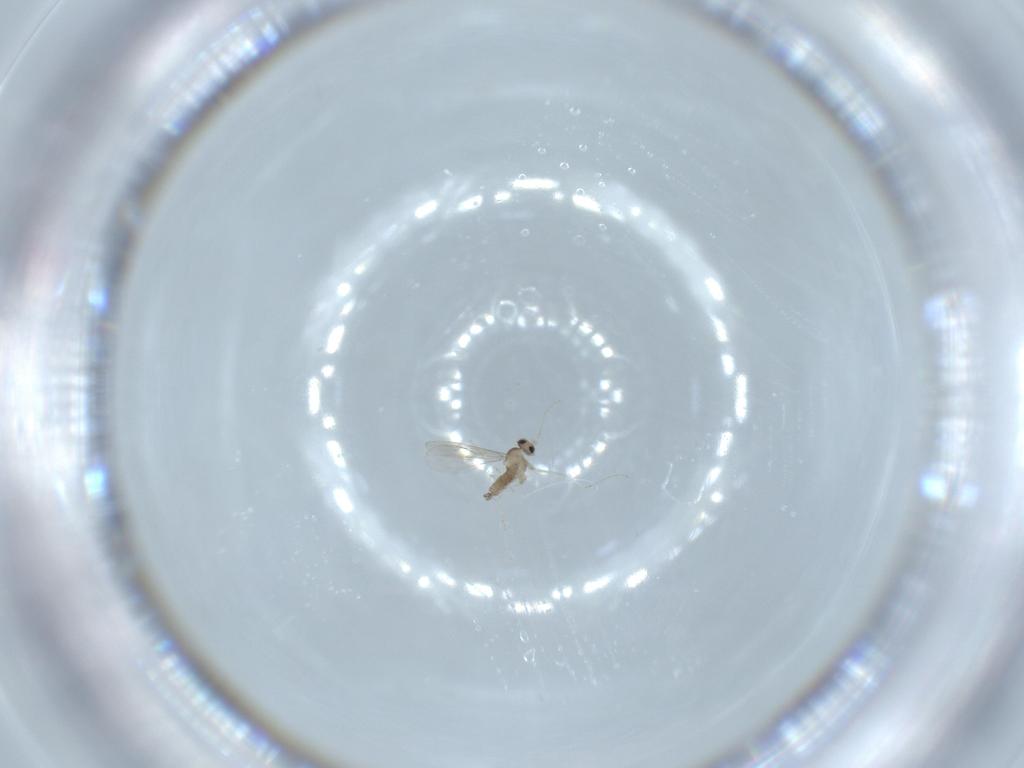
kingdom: Animalia
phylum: Arthropoda
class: Insecta
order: Diptera
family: Cecidomyiidae
